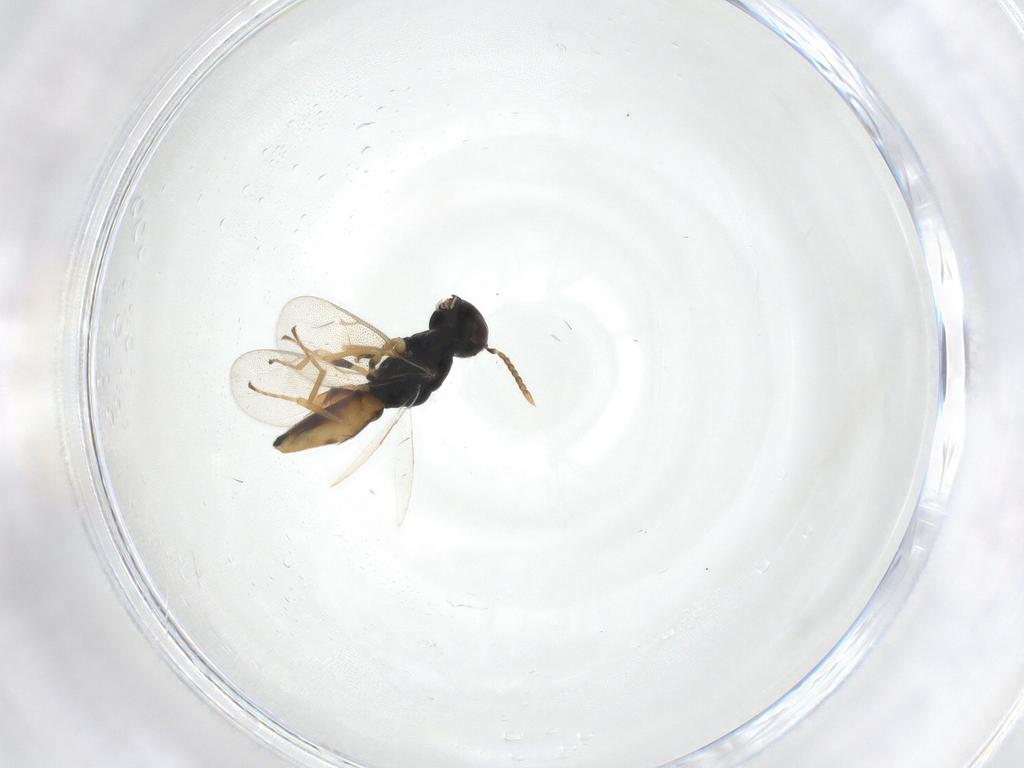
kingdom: Animalia
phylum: Arthropoda
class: Insecta
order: Hymenoptera
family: Pteromalidae
